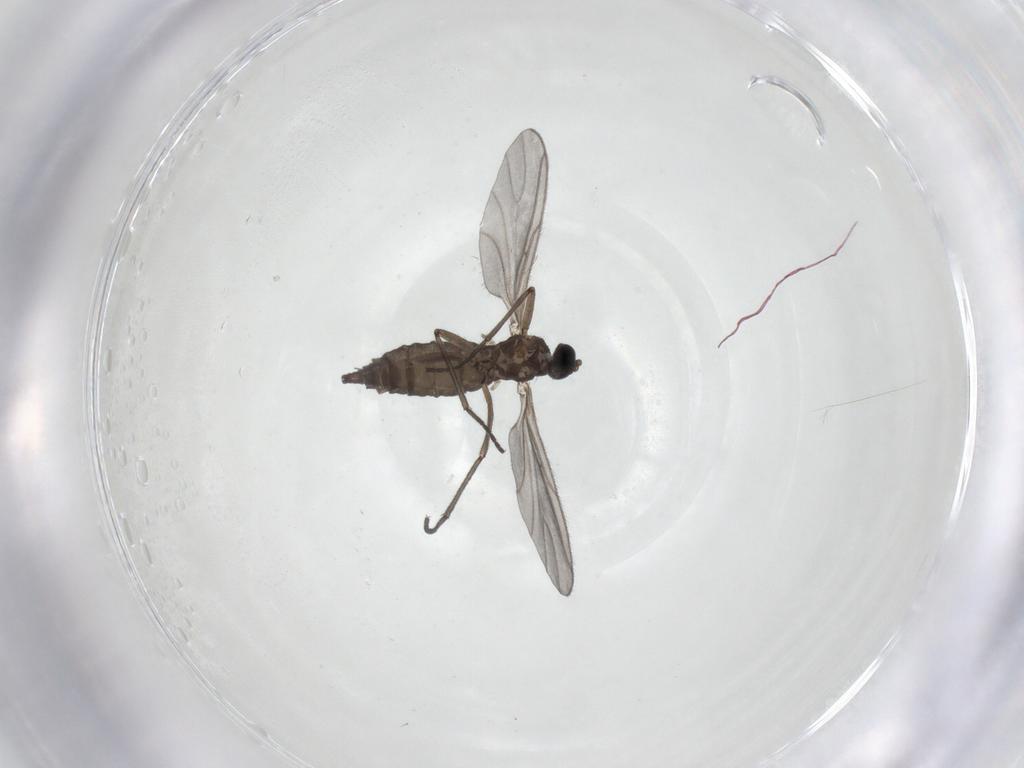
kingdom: Animalia
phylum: Arthropoda
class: Insecta
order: Diptera
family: Sciaridae
